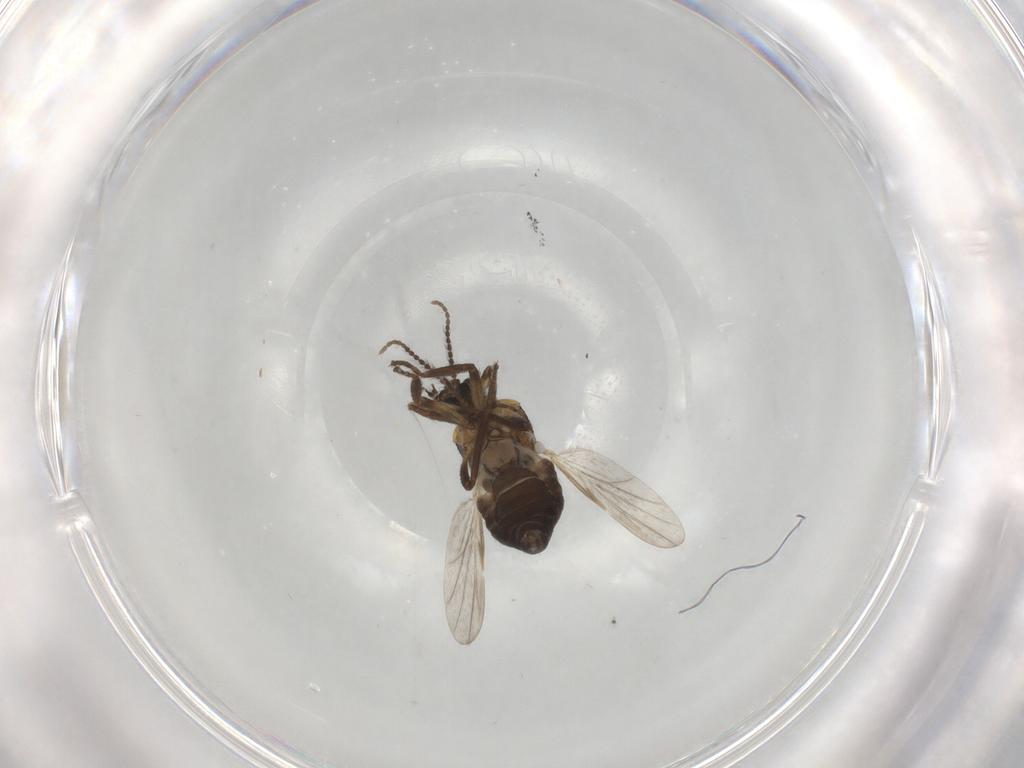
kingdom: Animalia
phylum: Arthropoda
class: Insecta
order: Diptera
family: Ceratopogonidae
